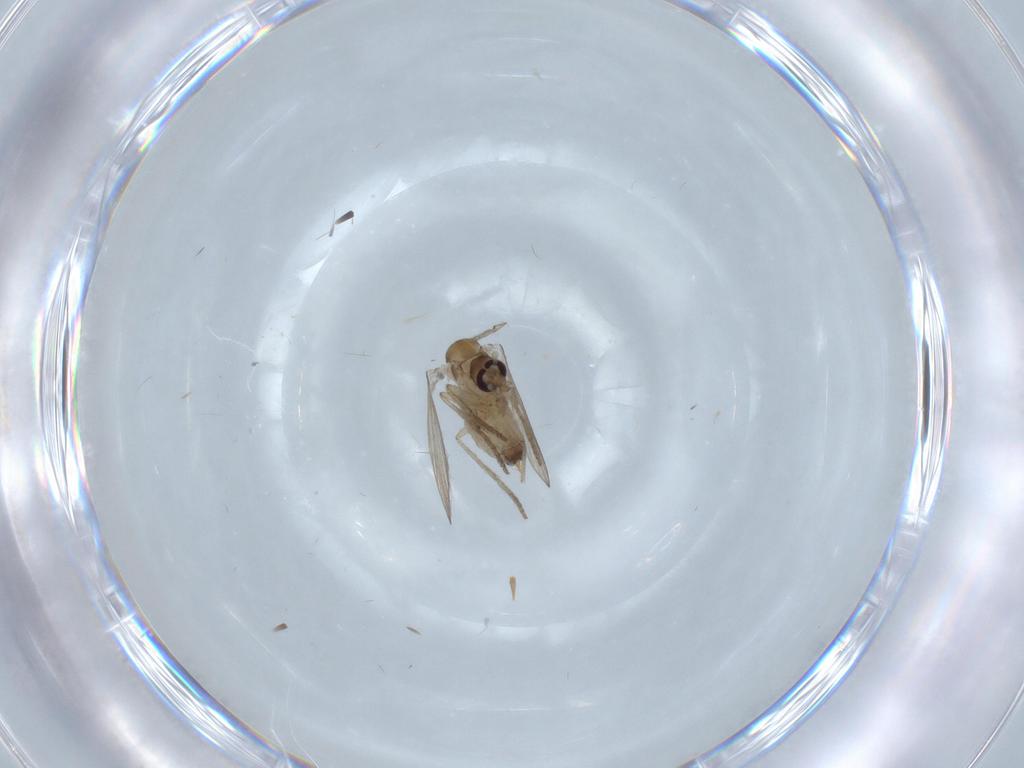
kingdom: Animalia
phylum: Arthropoda
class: Insecta
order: Diptera
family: Psychodidae
